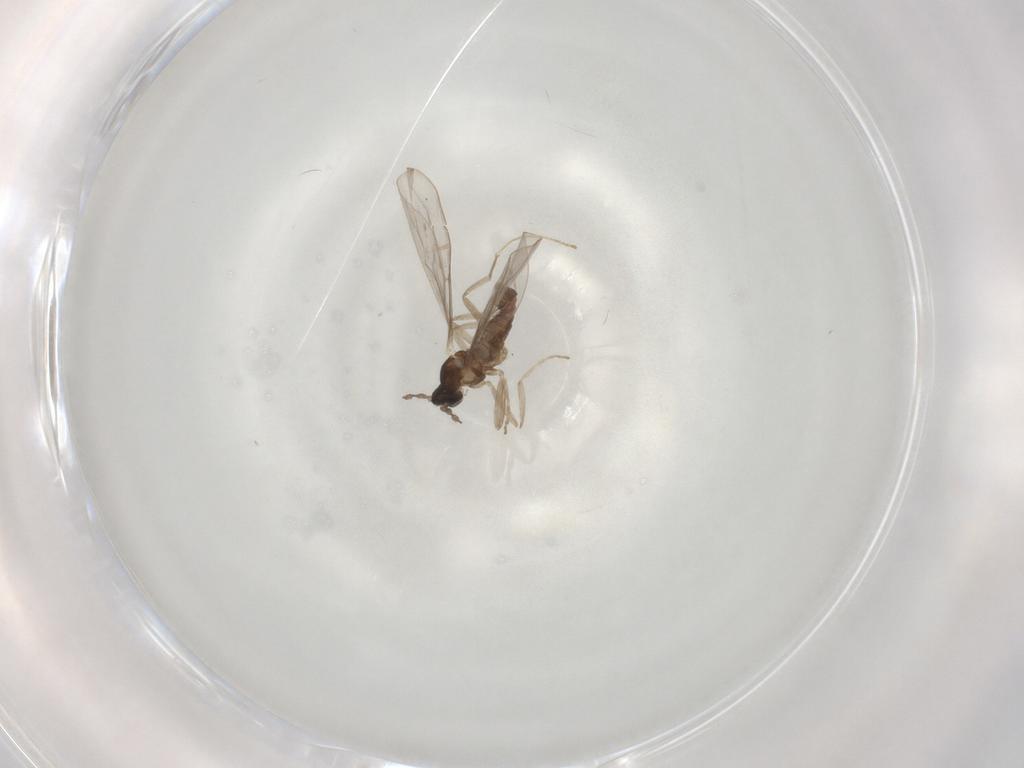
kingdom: Animalia
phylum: Arthropoda
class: Insecta
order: Diptera
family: Cecidomyiidae
